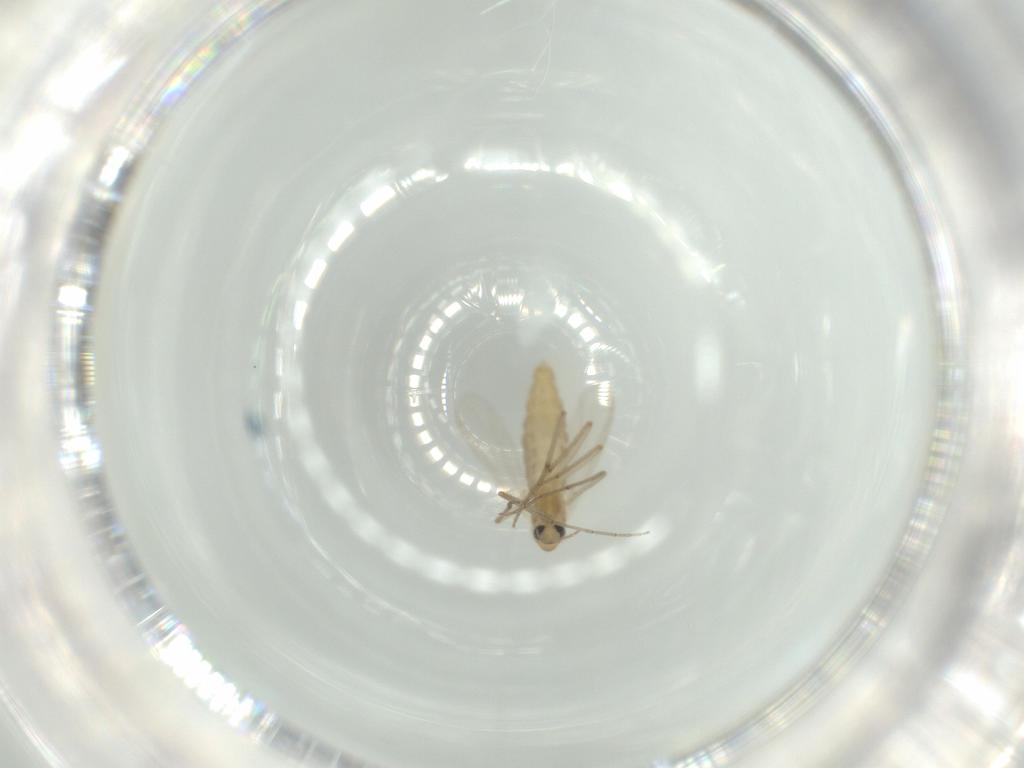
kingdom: Animalia
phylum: Arthropoda
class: Insecta
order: Diptera
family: Chironomidae
